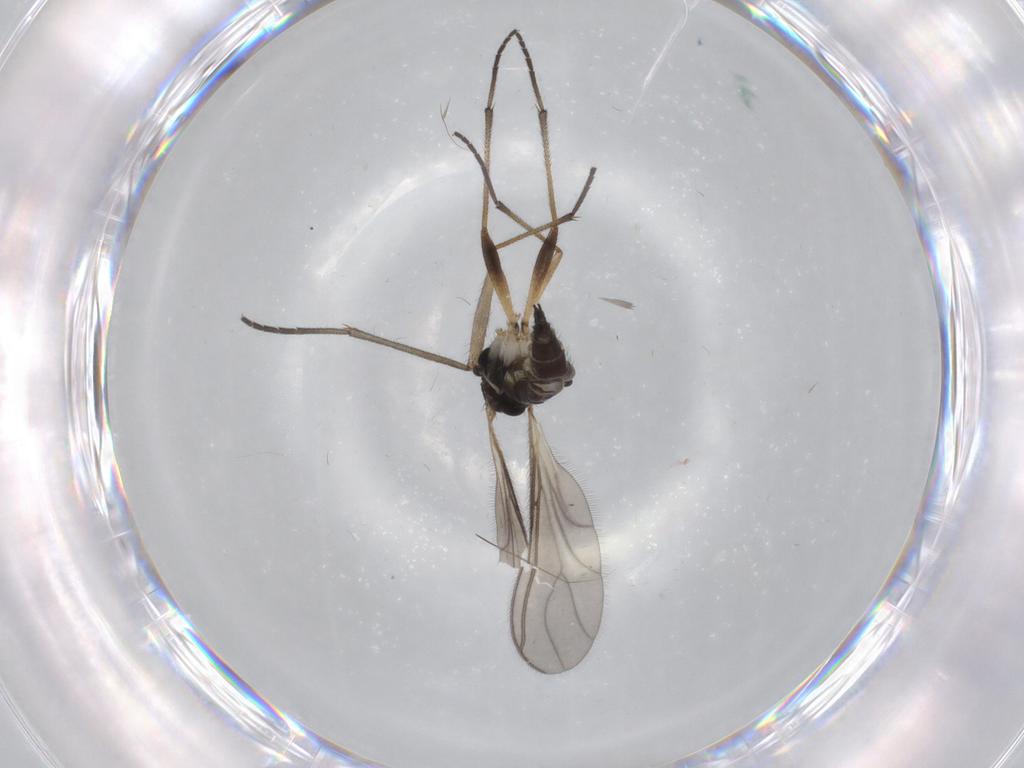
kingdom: Animalia
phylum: Arthropoda
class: Insecta
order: Diptera
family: Sciaridae
